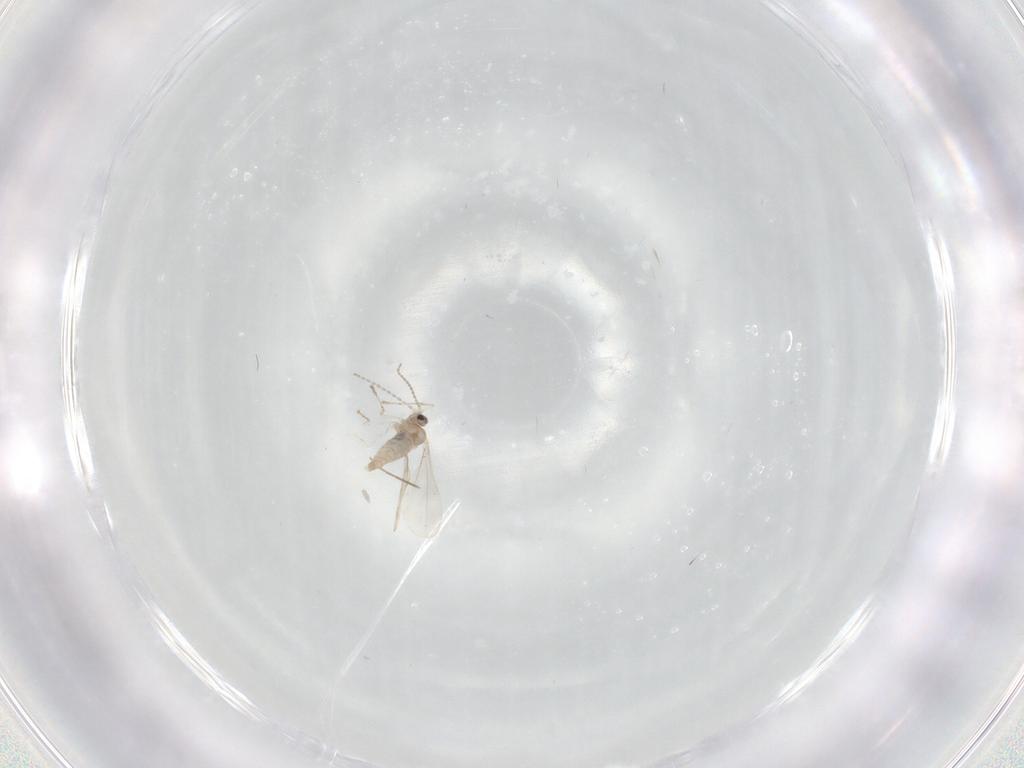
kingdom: Animalia
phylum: Arthropoda
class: Insecta
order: Diptera
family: Cecidomyiidae
